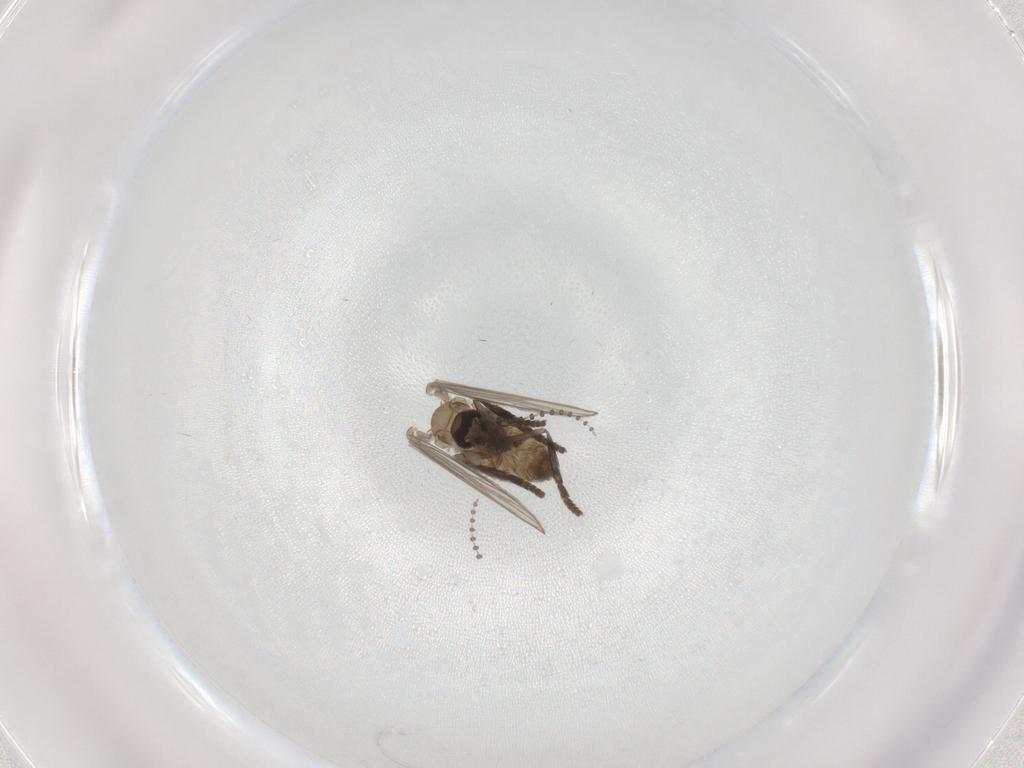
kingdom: Animalia
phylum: Arthropoda
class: Insecta
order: Diptera
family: Psychodidae
